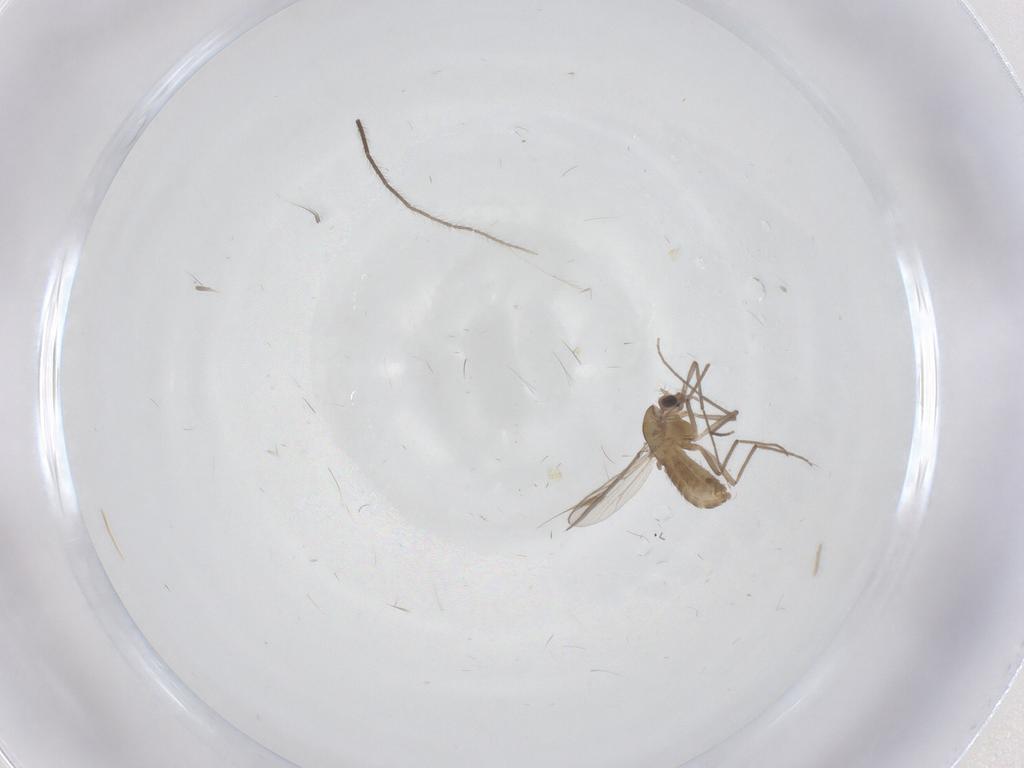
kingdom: Animalia
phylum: Arthropoda
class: Insecta
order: Diptera
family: Chironomidae
